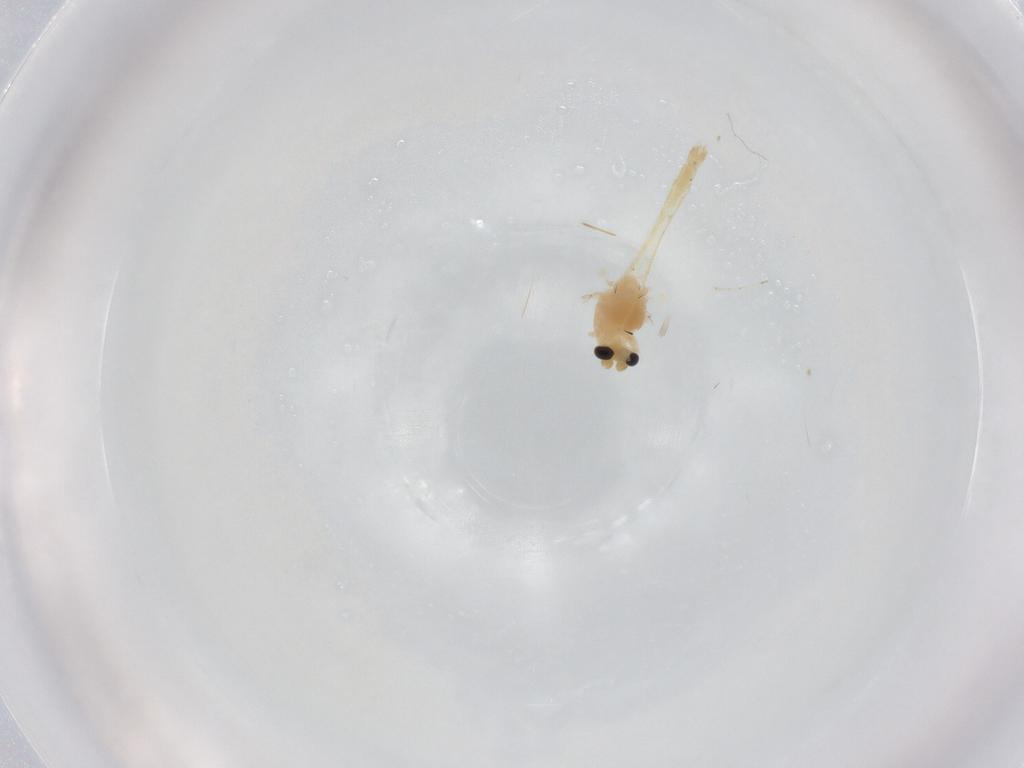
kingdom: Animalia
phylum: Arthropoda
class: Insecta
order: Diptera
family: Chironomidae
